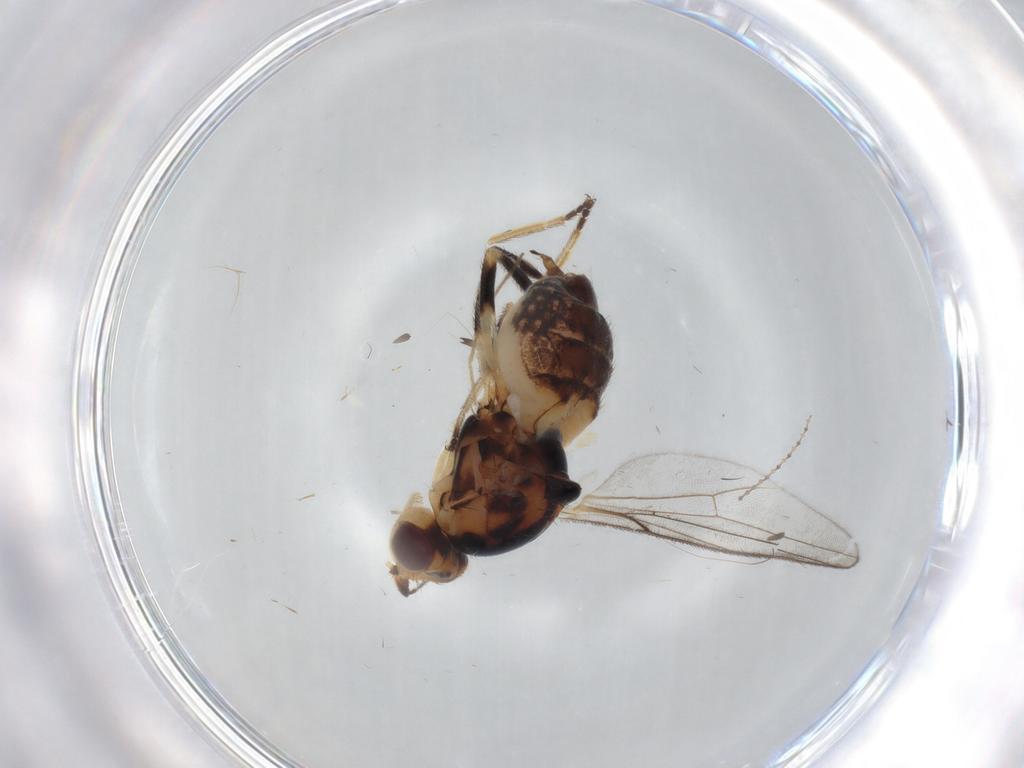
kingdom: Animalia
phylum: Arthropoda
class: Insecta
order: Diptera
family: Chloropidae
